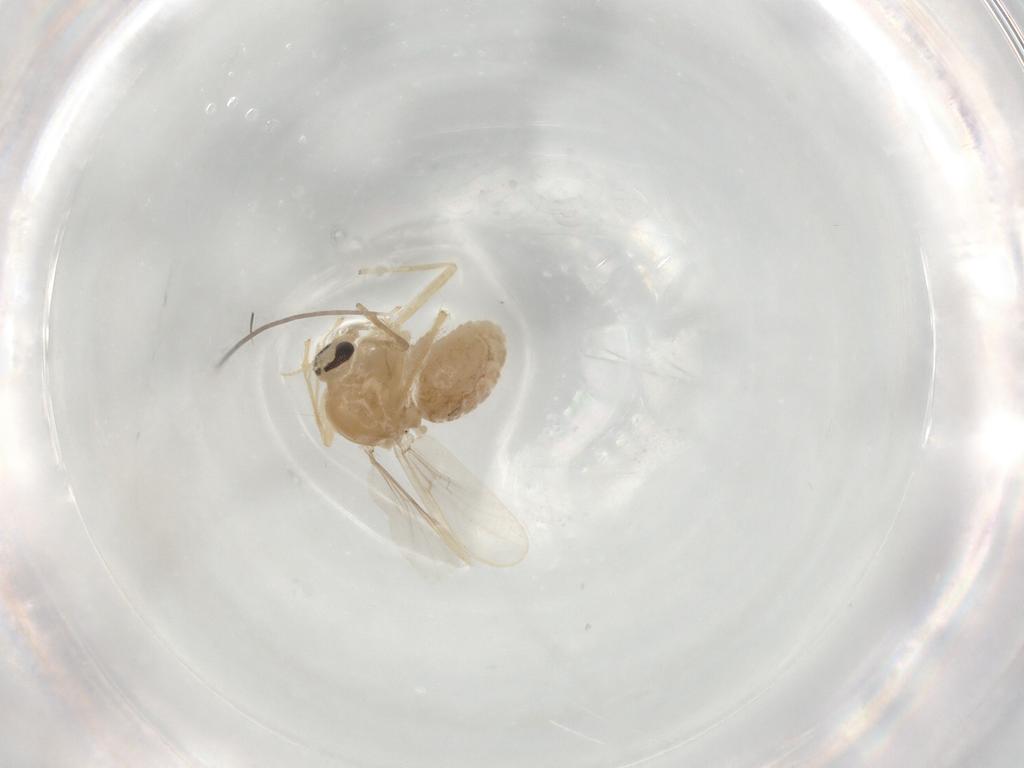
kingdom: Animalia
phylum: Arthropoda
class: Insecta
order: Diptera
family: Chironomidae
